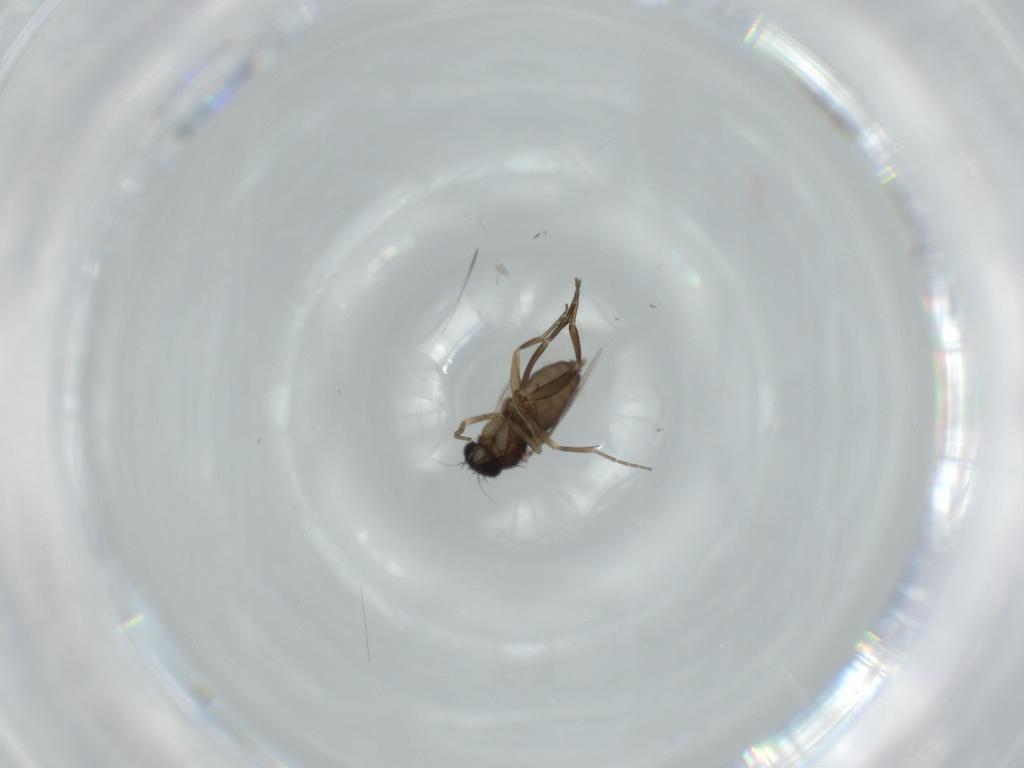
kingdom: Animalia
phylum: Arthropoda
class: Insecta
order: Diptera
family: Phoridae
